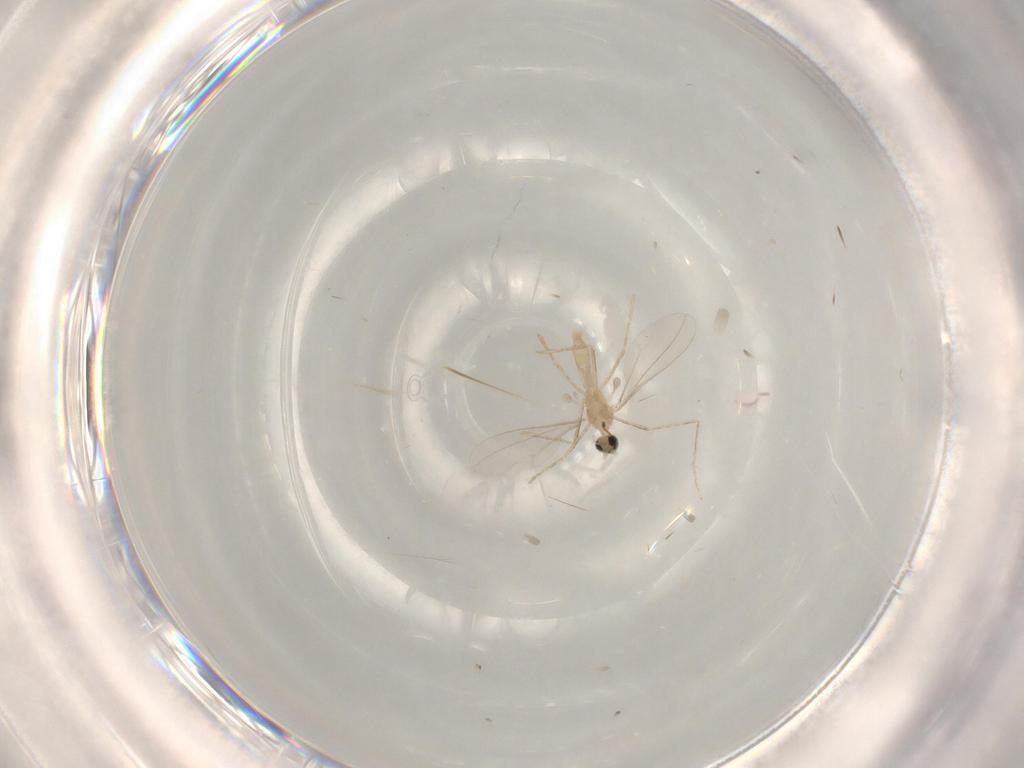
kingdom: Animalia
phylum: Arthropoda
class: Insecta
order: Diptera
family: Cecidomyiidae
